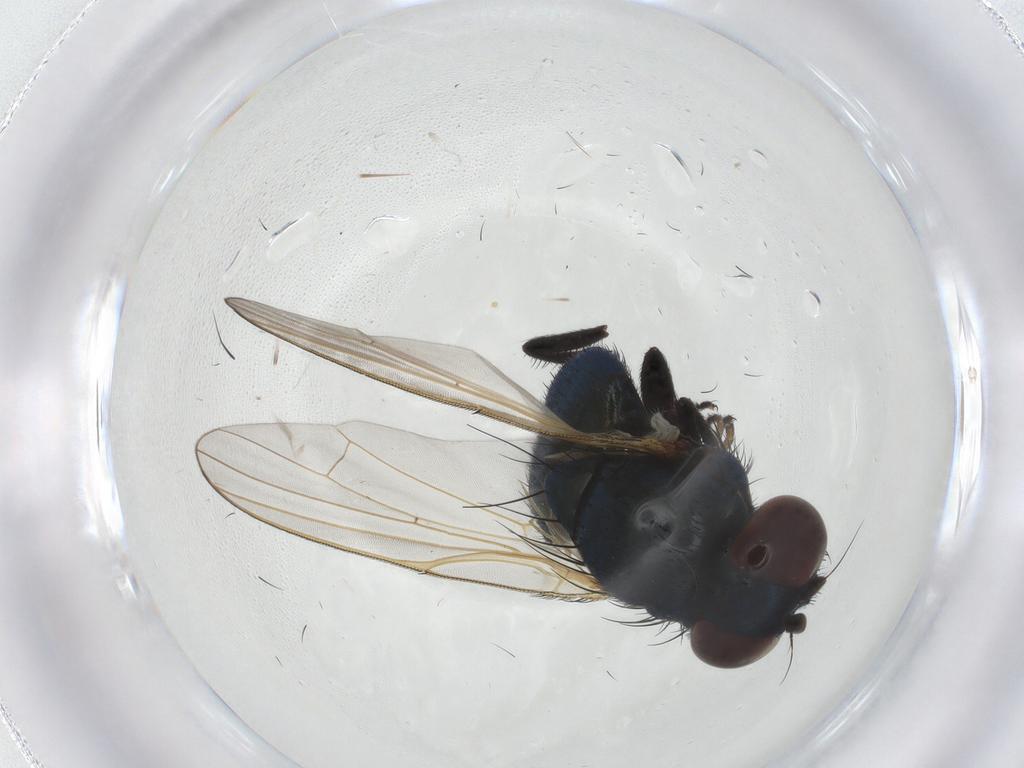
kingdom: Animalia
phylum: Arthropoda
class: Insecta
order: Diptera
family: Lonchaeidae
